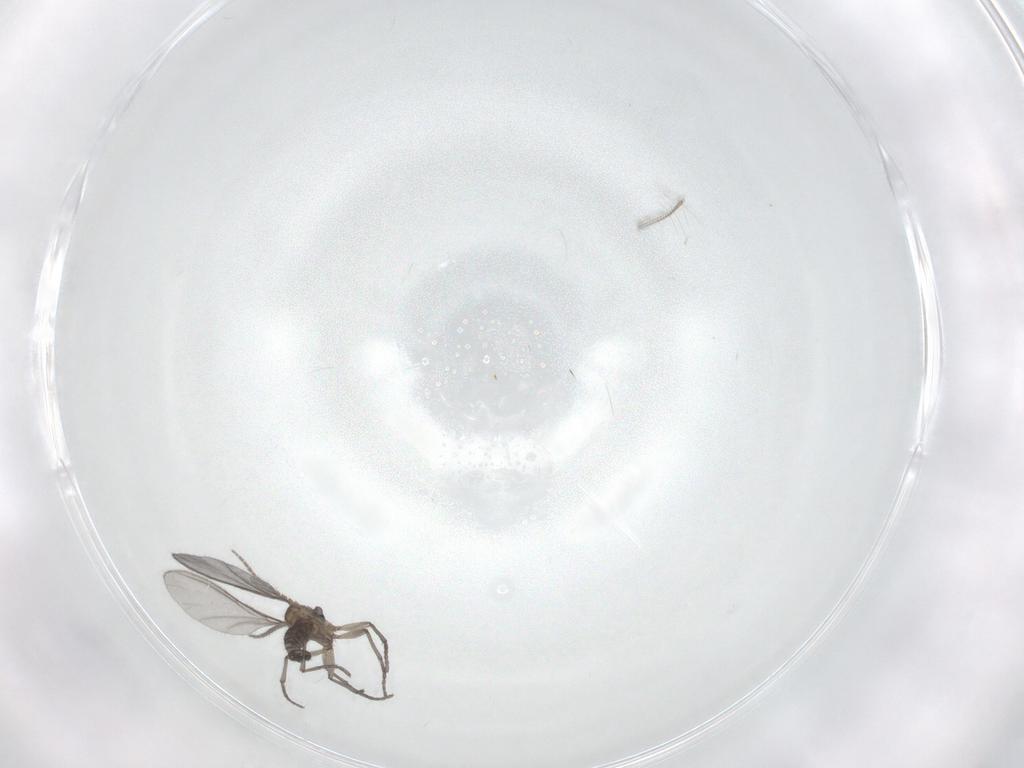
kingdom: Animalia
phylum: Arthropoda
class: Insecta
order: Diptera
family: Sciaridae
